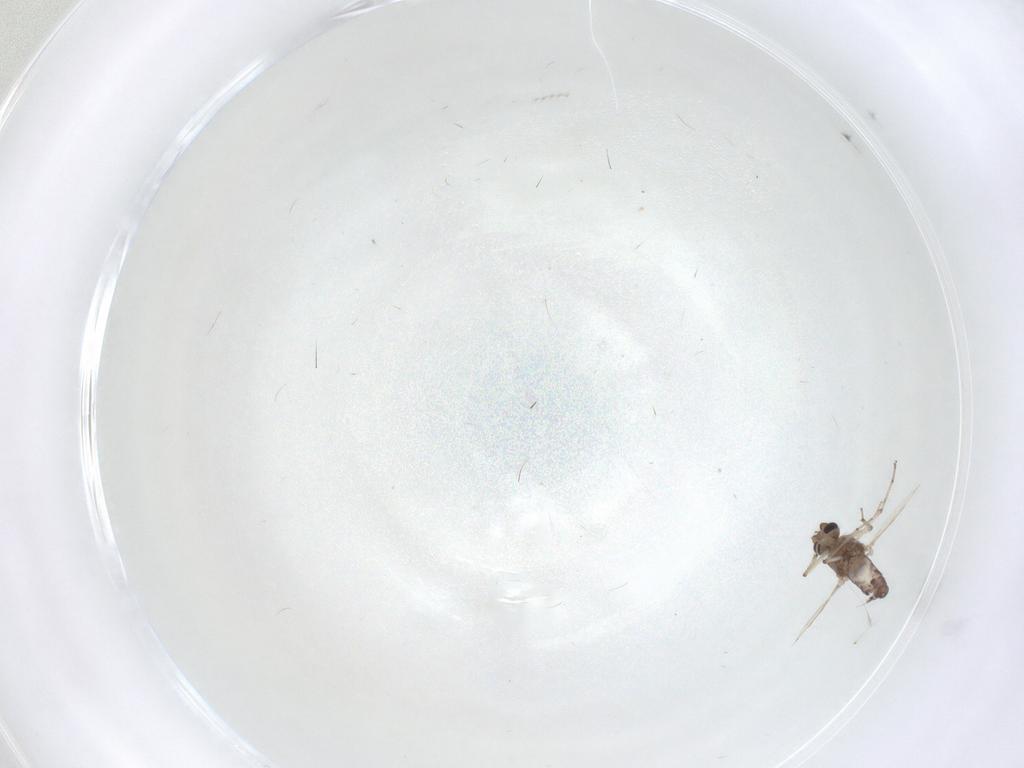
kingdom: Animalia
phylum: Arthropoda
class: Insecta
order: Diptera
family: Ceratopogonidae
